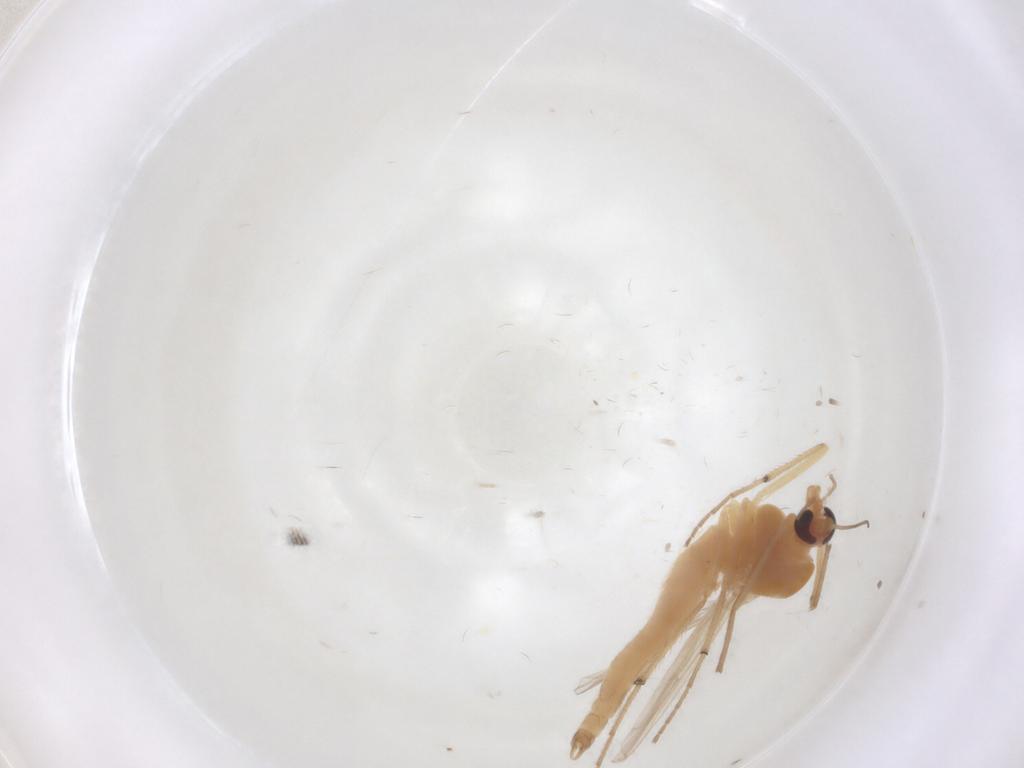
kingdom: Animalia
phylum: Arthropoda
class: Insecta
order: Diptera
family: Chironomidae
